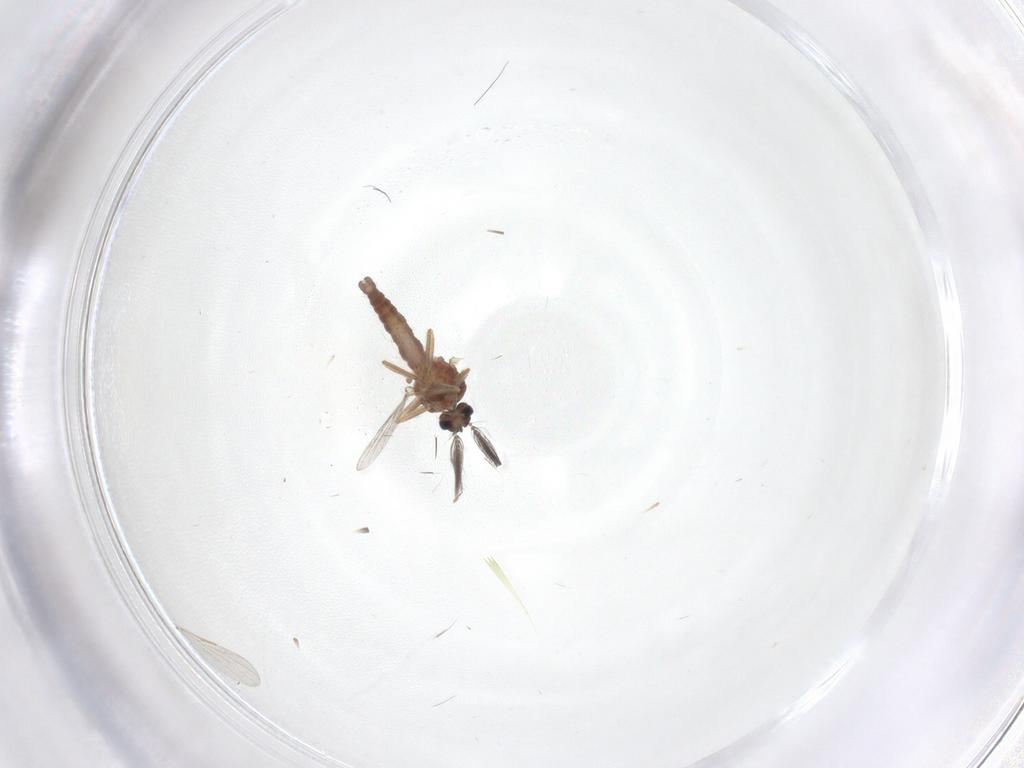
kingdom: Animalia
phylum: Arthropoda
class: Insecta
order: Diptera
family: Ceratopogonidae
